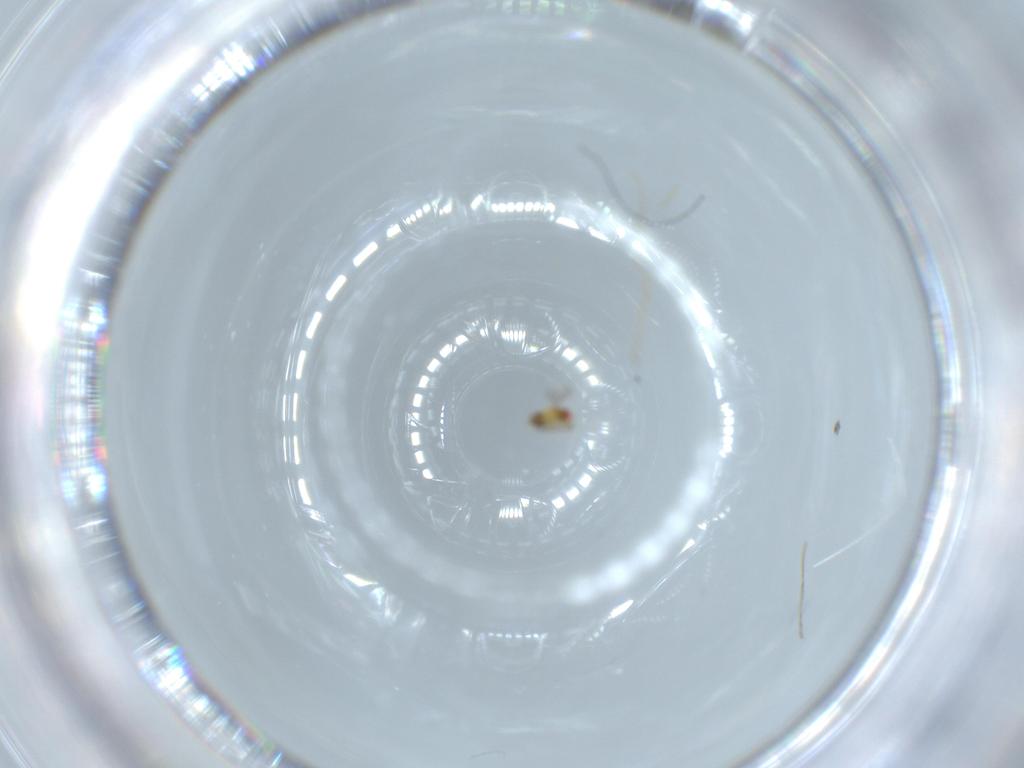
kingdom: Animalia
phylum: Arthropoda
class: Insecta
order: Hymenoptera
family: Trichogrammatidae
